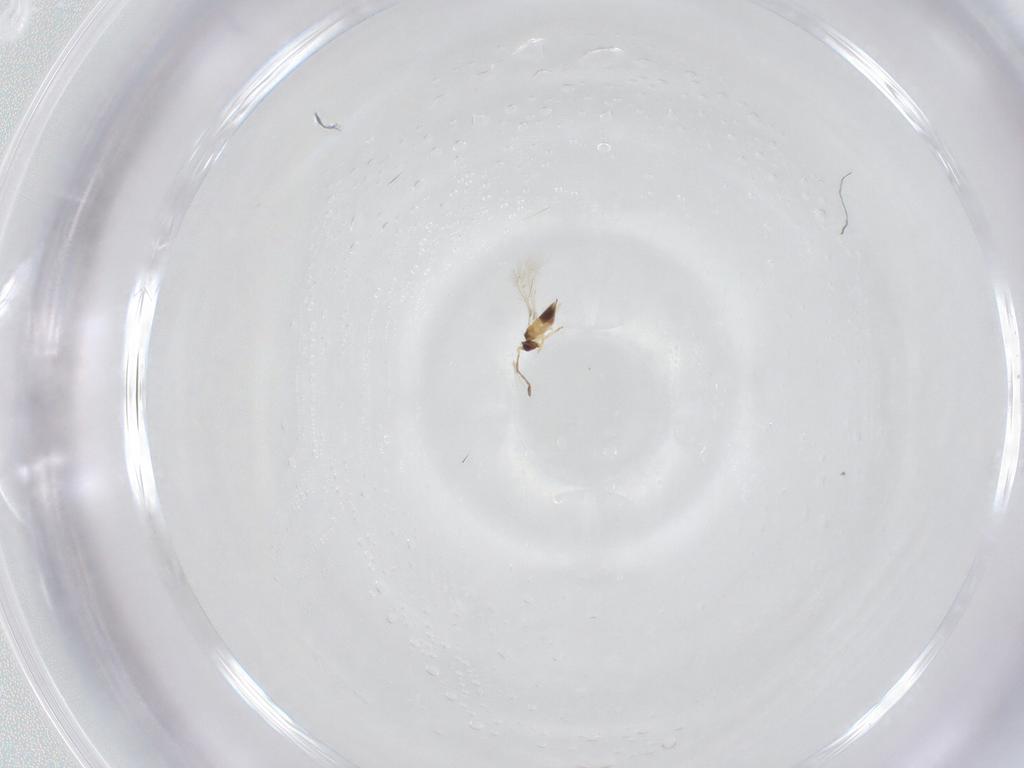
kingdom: Animalia
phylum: Arthropoda
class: Insecta
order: Hymenoptera
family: Mymaridae
